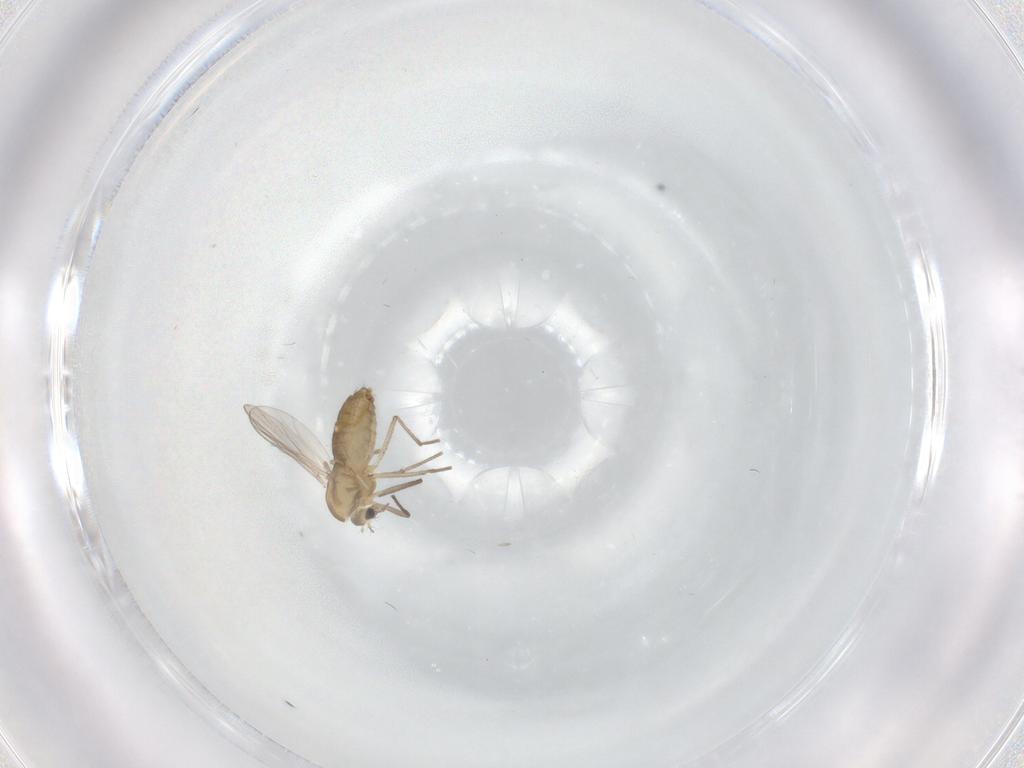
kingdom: Animalia
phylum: Arthropoda
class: Insecta
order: Diptera
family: Chironomidae
